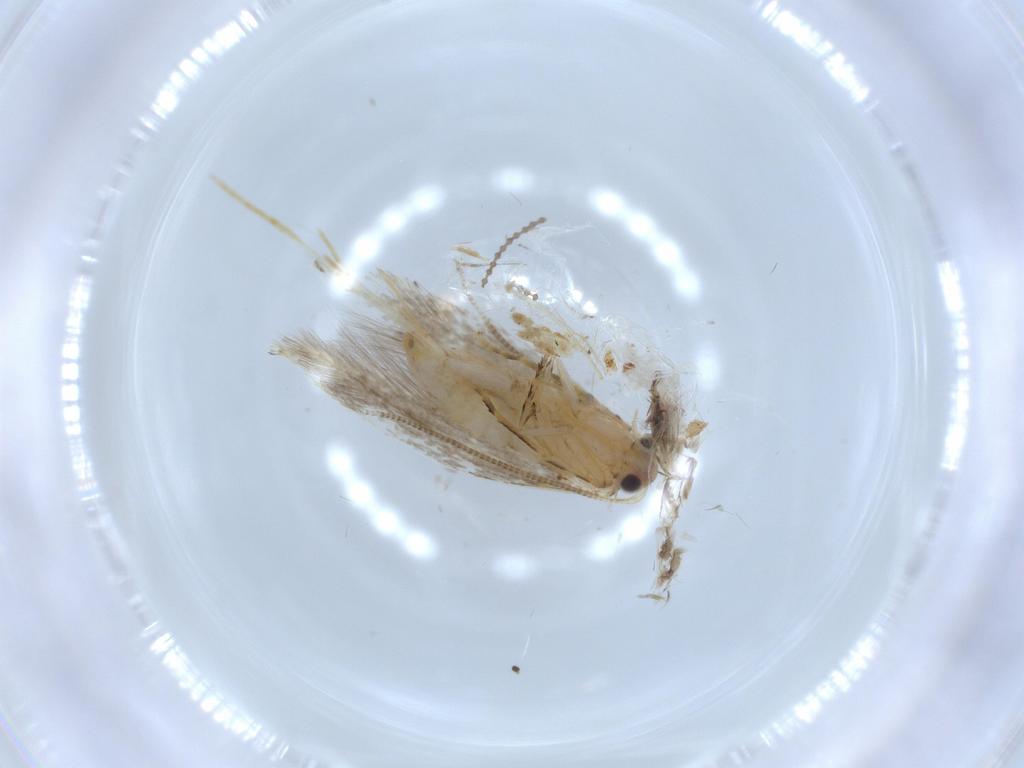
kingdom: Animalia
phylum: Arthropoda
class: Insecta
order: Lepidoptera
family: Tineidae
